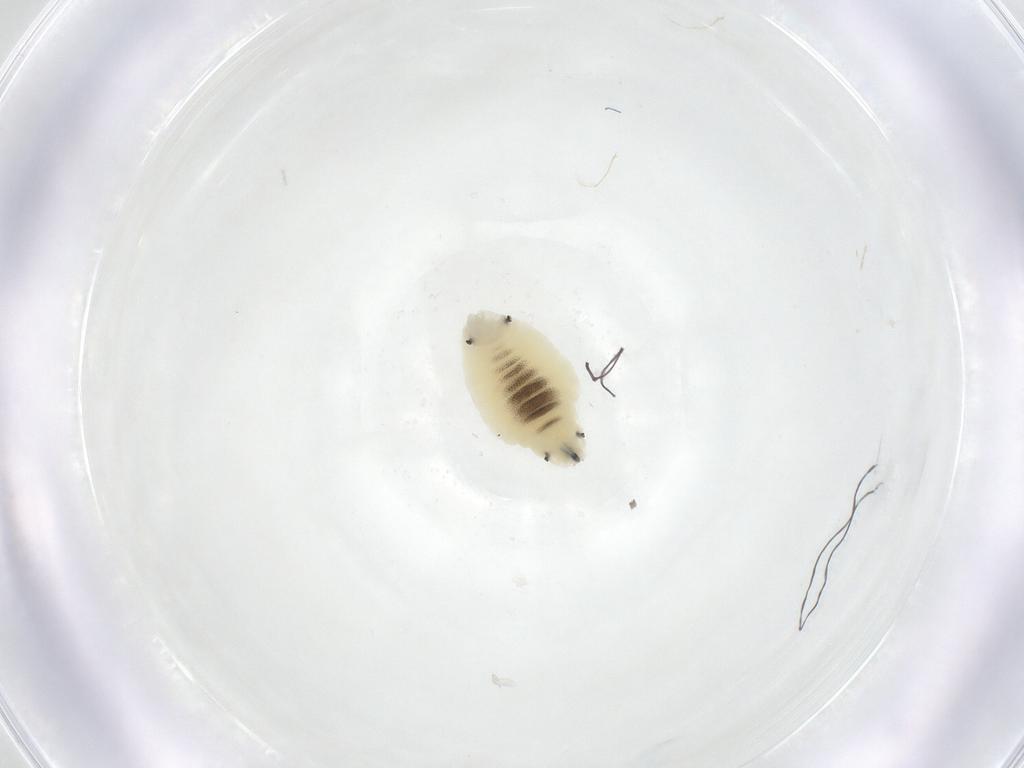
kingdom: Animalia
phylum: Arthropoda
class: Insecta
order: Diptera
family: Fergusoninidae
